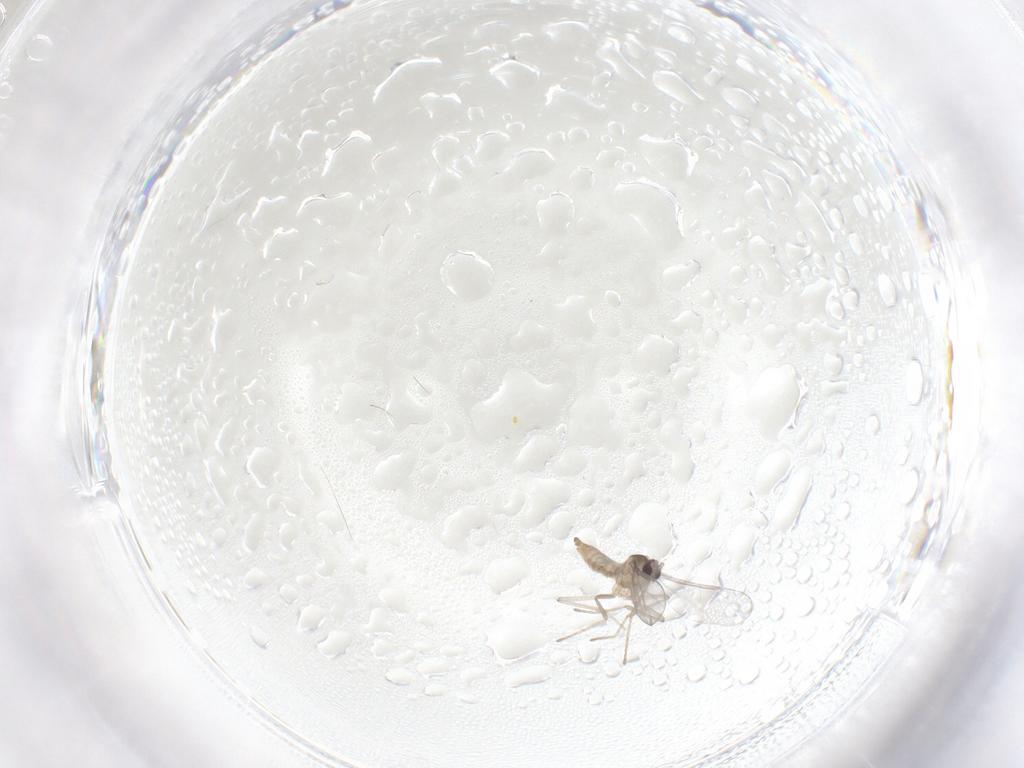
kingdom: Animalia
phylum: Arthropoda
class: Insecta
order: Diptera
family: Cecidomyiidae
